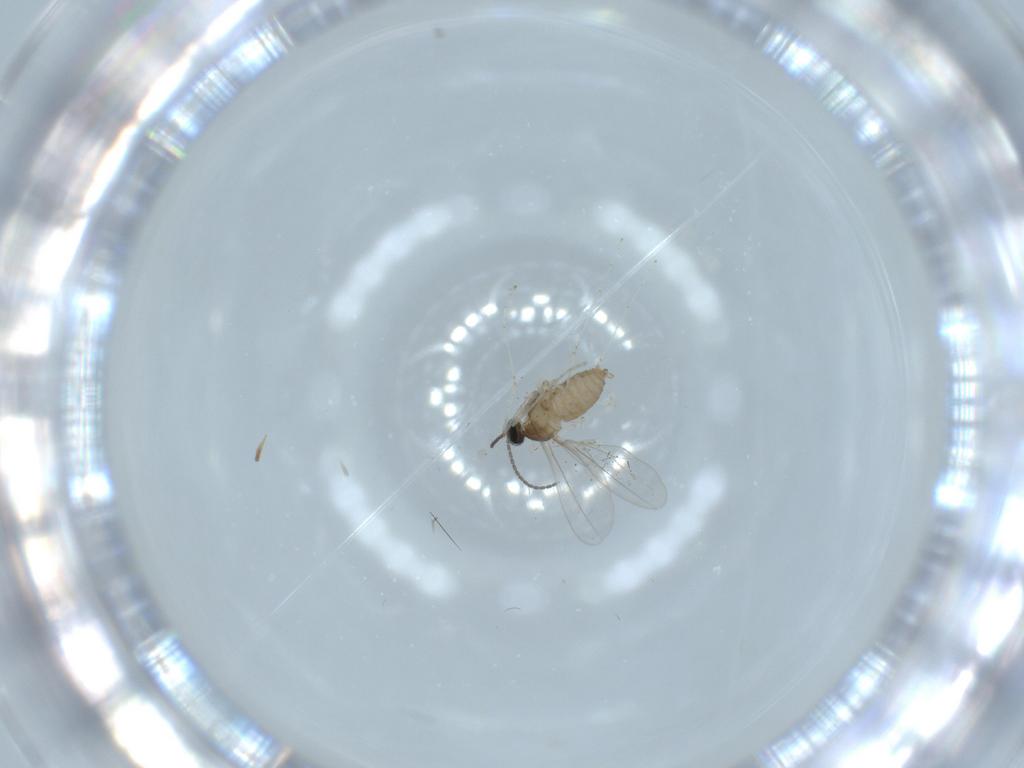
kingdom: Animalia
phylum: Arthropoda
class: Insecta
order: Diptera
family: Cecidomyiidae
